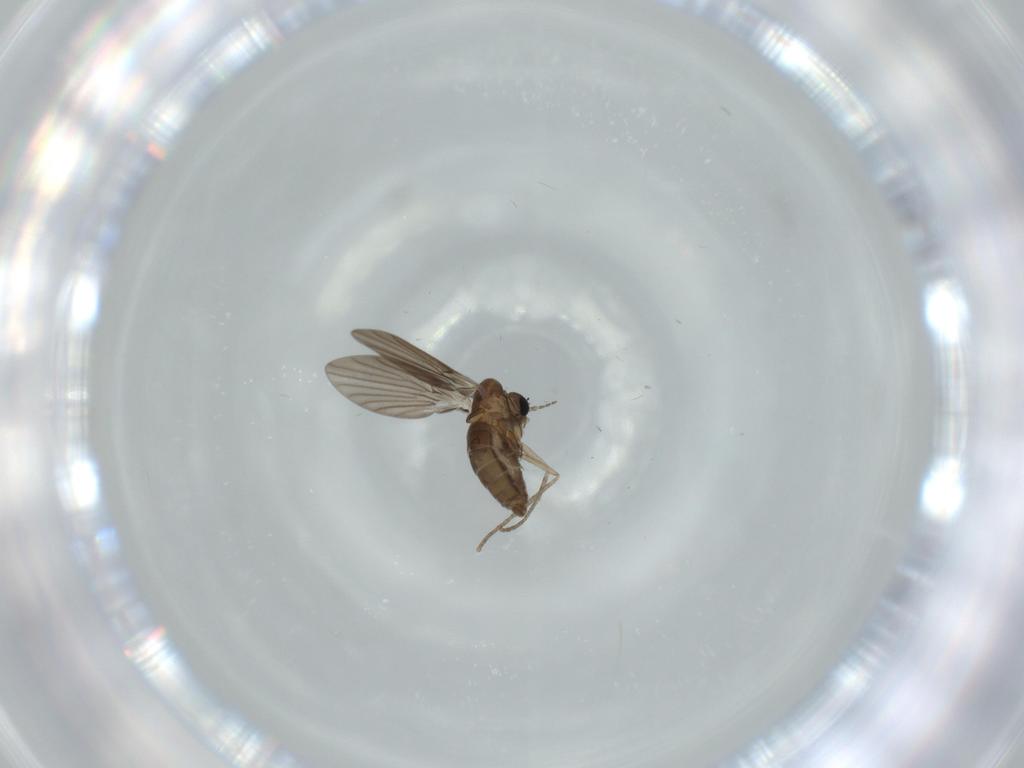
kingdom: Animalia
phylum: Arthropoda
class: Insecta
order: Diptera
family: Psychodidae
